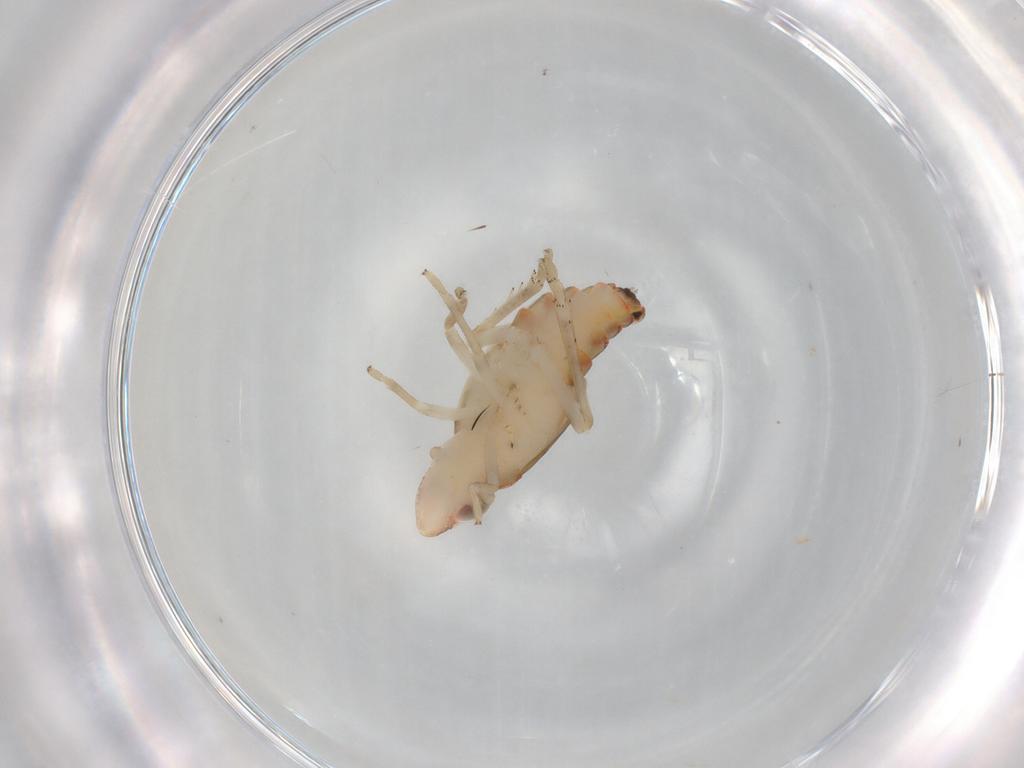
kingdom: Animalia
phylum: Arthropoda
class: Insecta
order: Hemiptera
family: Tropiduchidae
